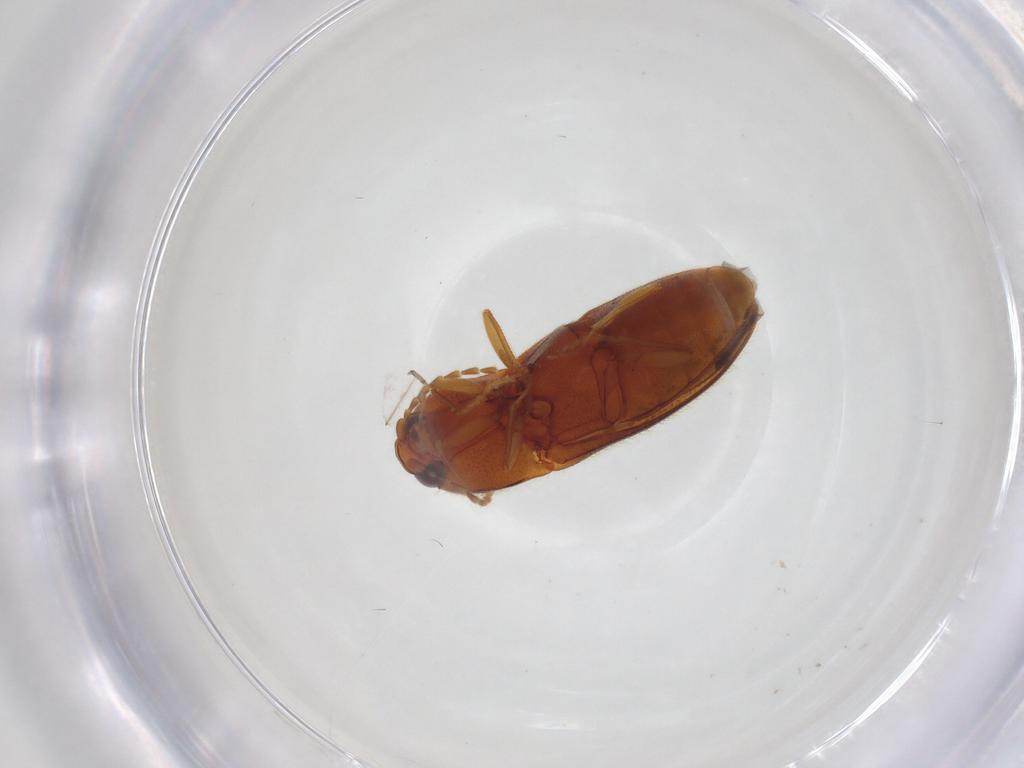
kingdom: Animalia
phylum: Arthropoda
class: Insecta
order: Coleoptera
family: Elateridae
